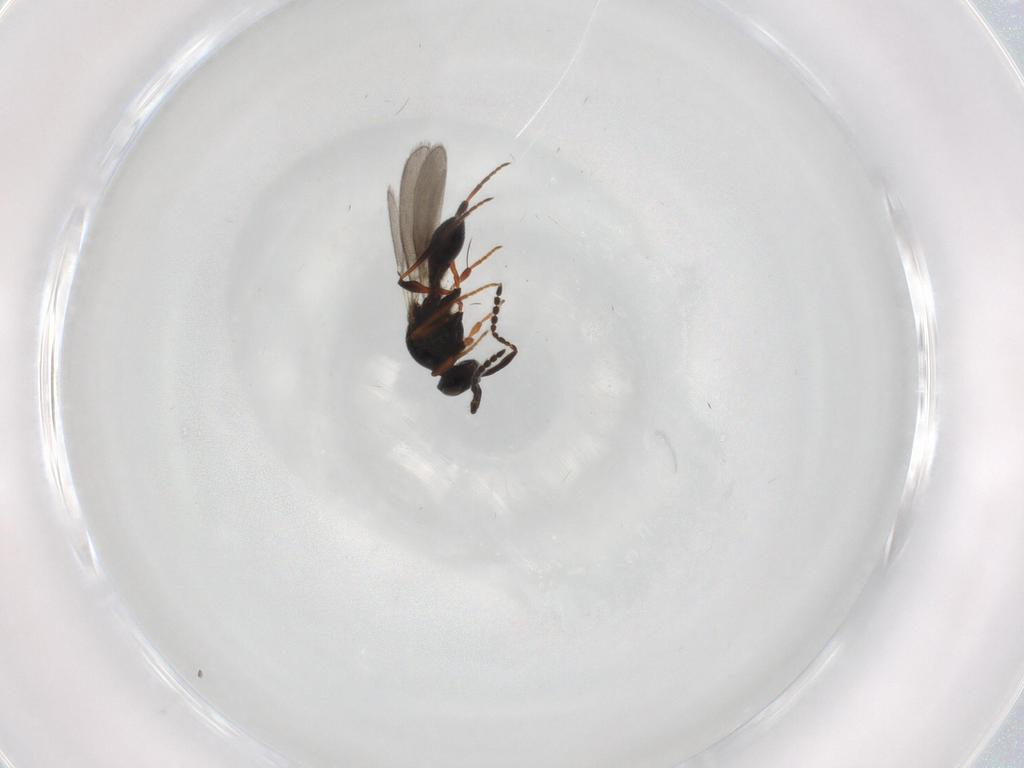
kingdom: Animalia
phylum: Arthropoda
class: Insecta
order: Hymenoptera
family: Platygastridae
